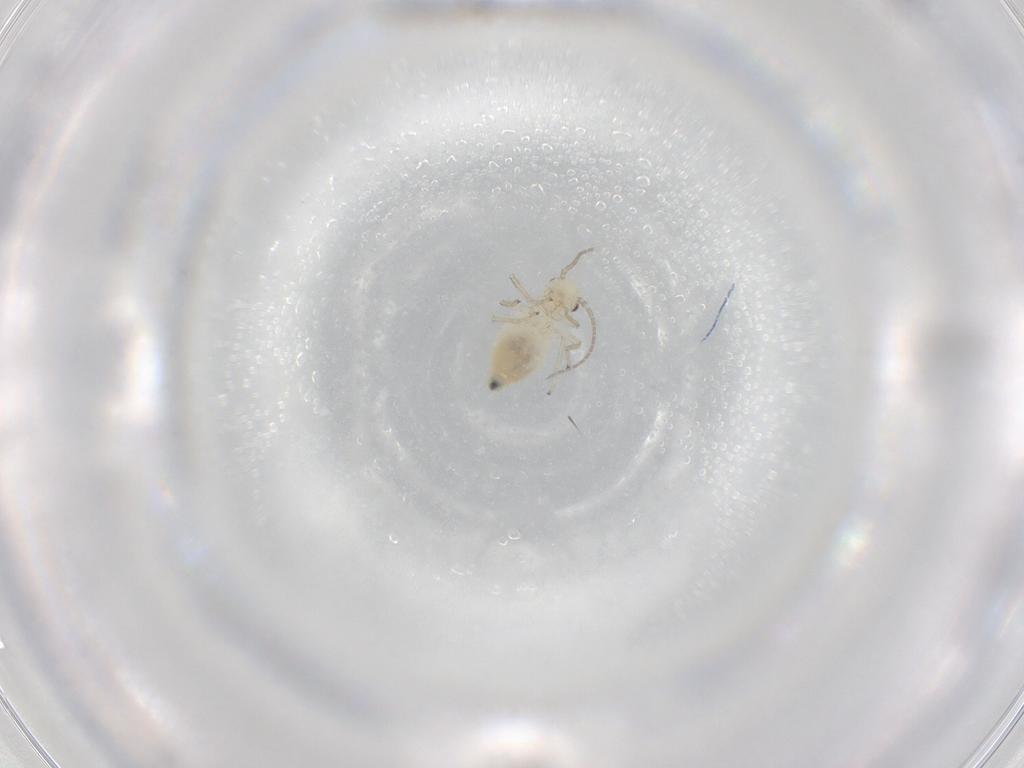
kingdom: Animalia
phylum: Arthropoda
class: Insecta
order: Psocodea
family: Caeciliusidae
